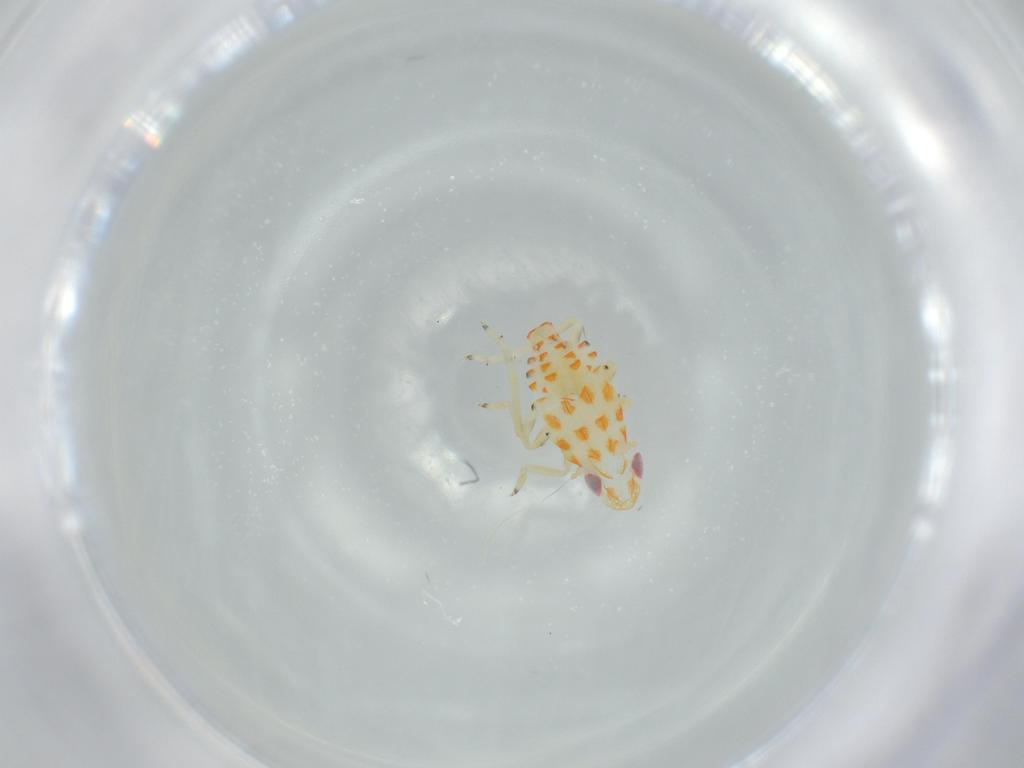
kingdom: Animalia
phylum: Arthropoda
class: Insecta
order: Hemiptera
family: Tropiduchidae
